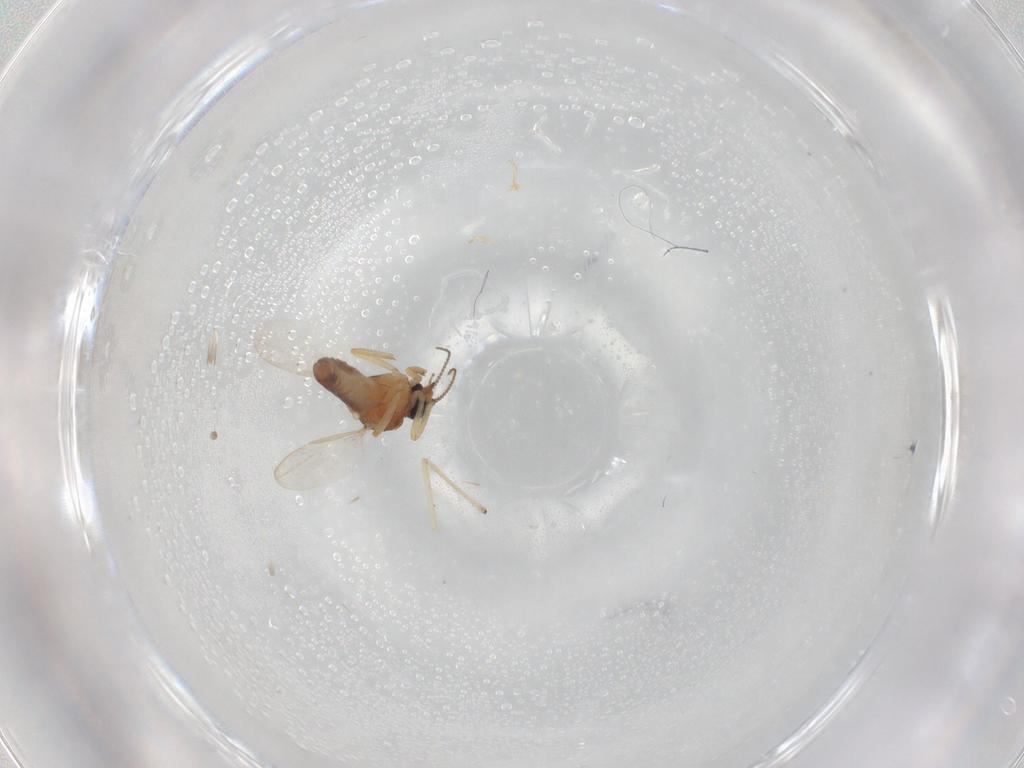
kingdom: Animalia
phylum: Arthropoda
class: Insecta
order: Diptera
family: Ceratopogonidae
